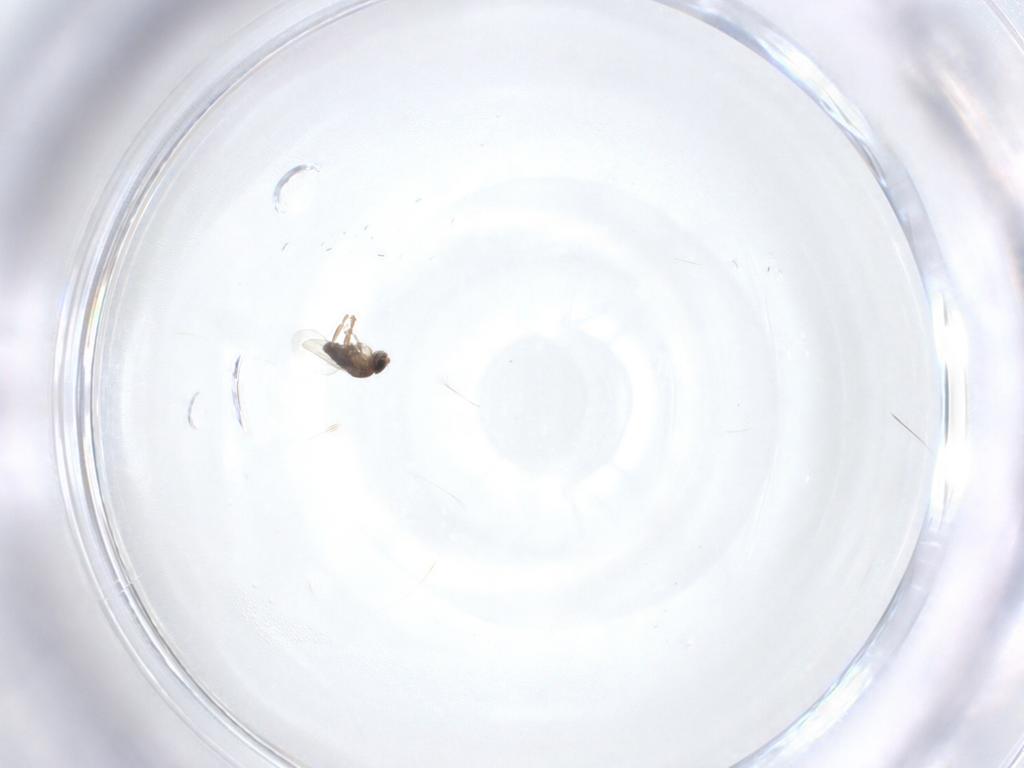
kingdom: Animalia
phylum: Arthropoda
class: Insecta
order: Diptera
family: Phoridae
